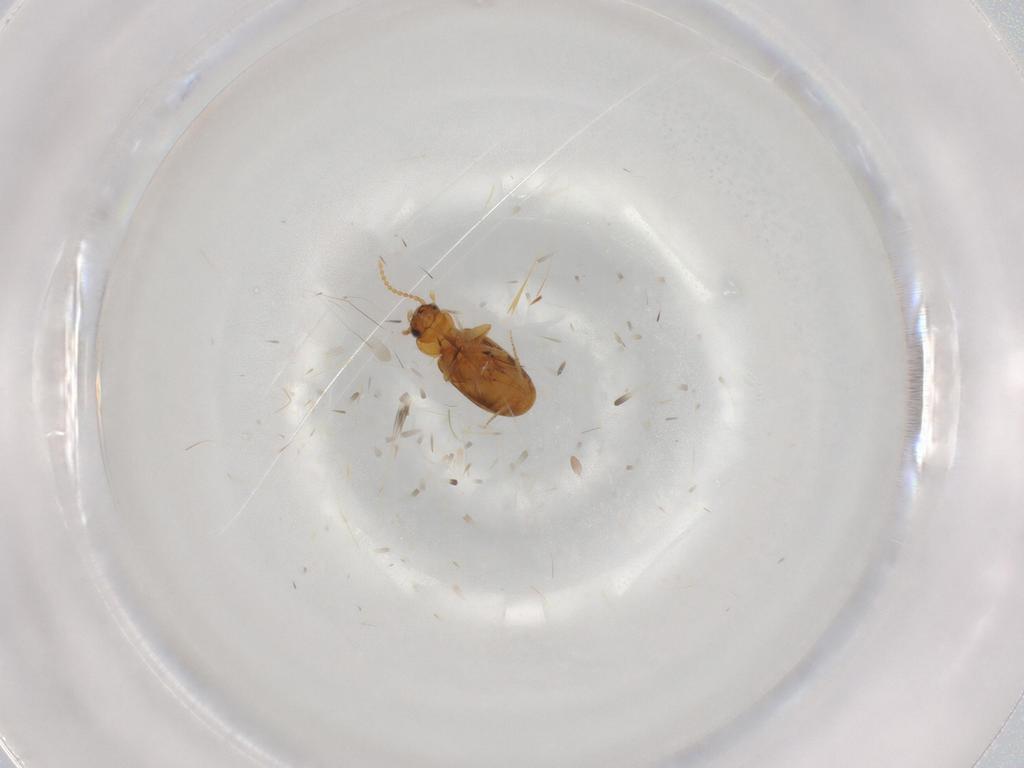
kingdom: Animalia
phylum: Arthropoda
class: Insecta
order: Coleoptera
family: Carabidae
